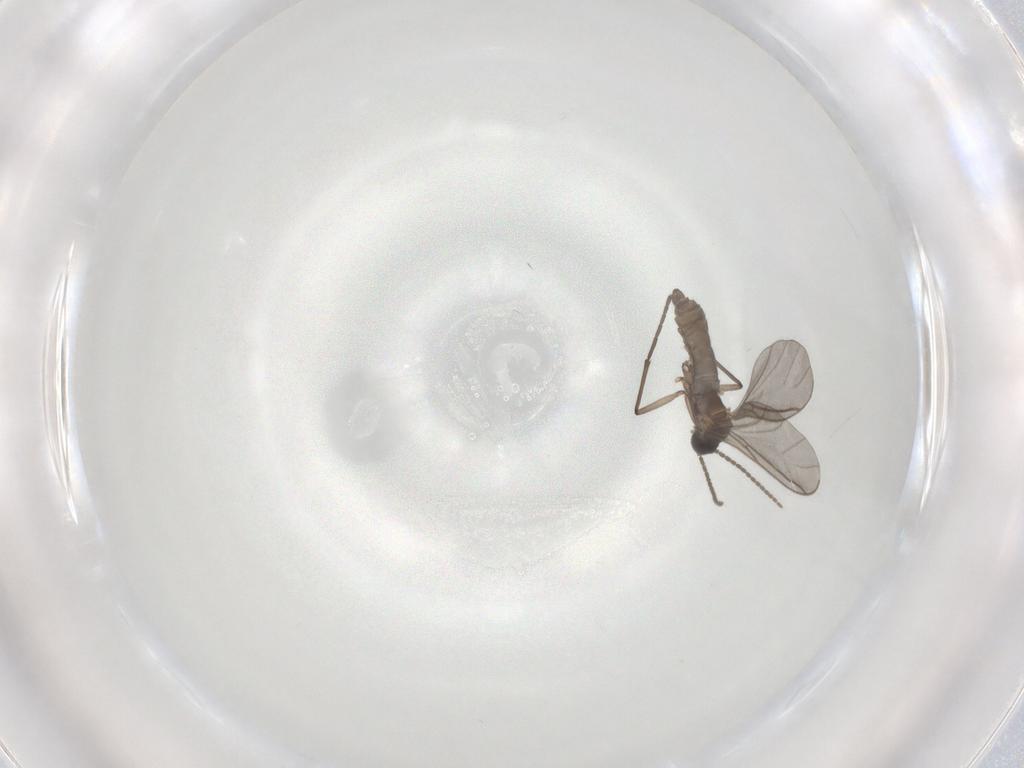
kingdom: Animalia
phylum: Arthropoda
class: Insecta
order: Diptera
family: Sciaridae
